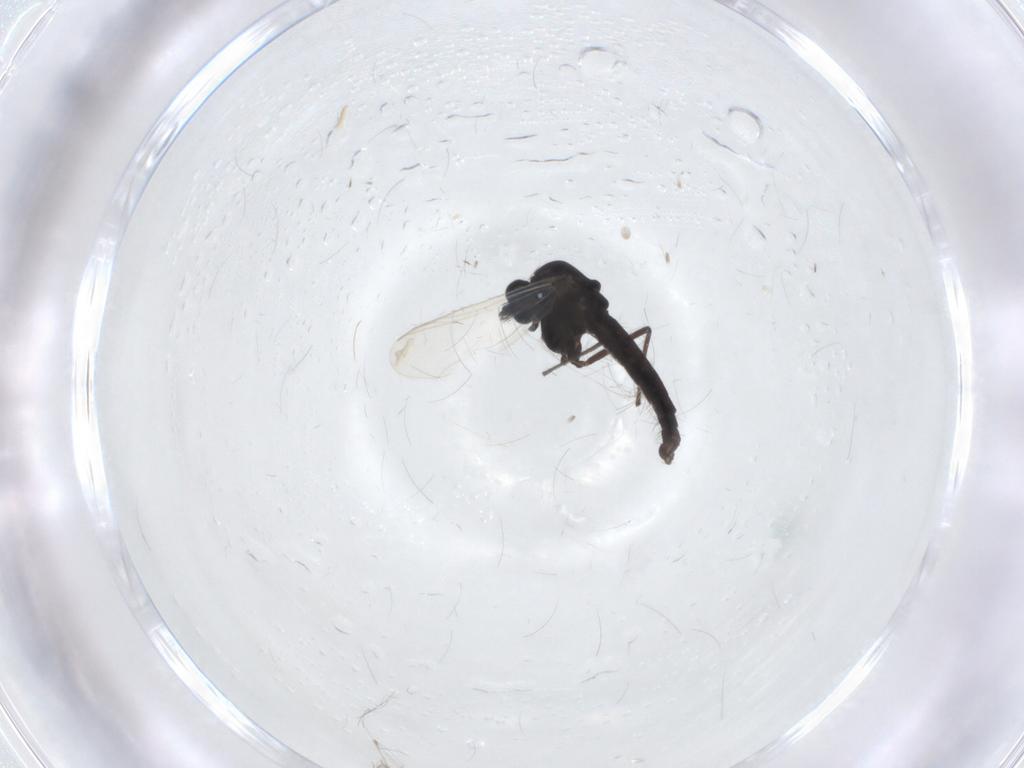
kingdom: Animalia
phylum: Arthropoda
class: Insecta
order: Diptera
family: Chironomidae
